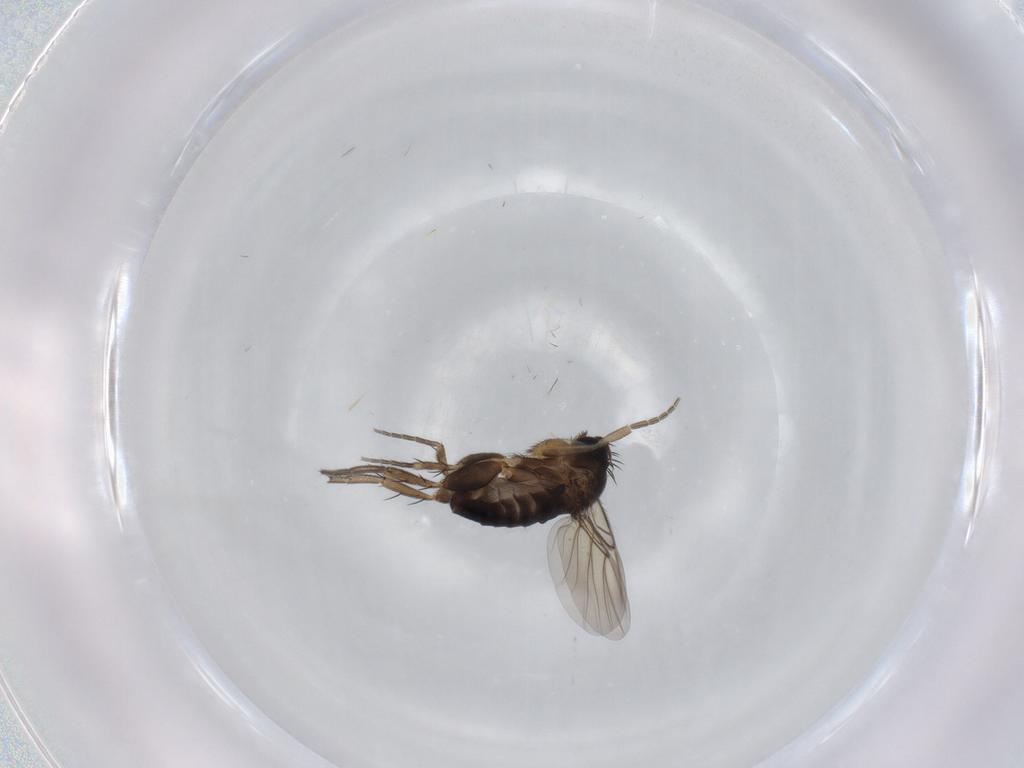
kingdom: Animalia
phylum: Arthropoda
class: Insecta
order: Diptera
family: Phoridae
